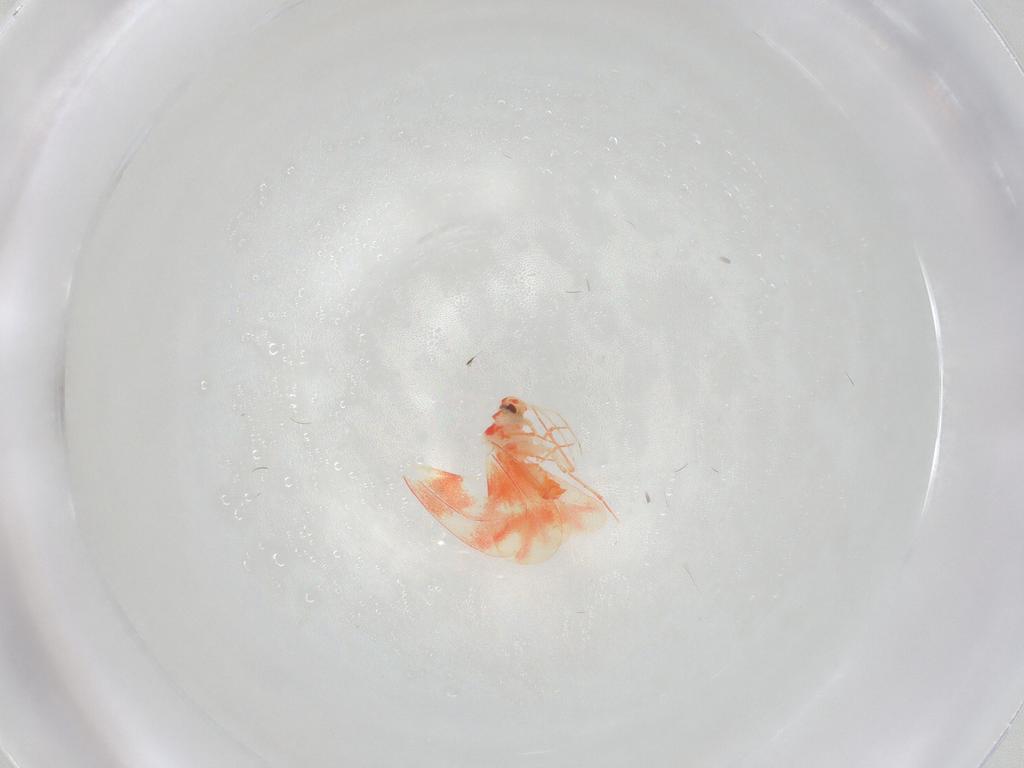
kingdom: Animalia
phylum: Arthropoda
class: Insecta
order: Hemiptera
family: Aleyrodidae
